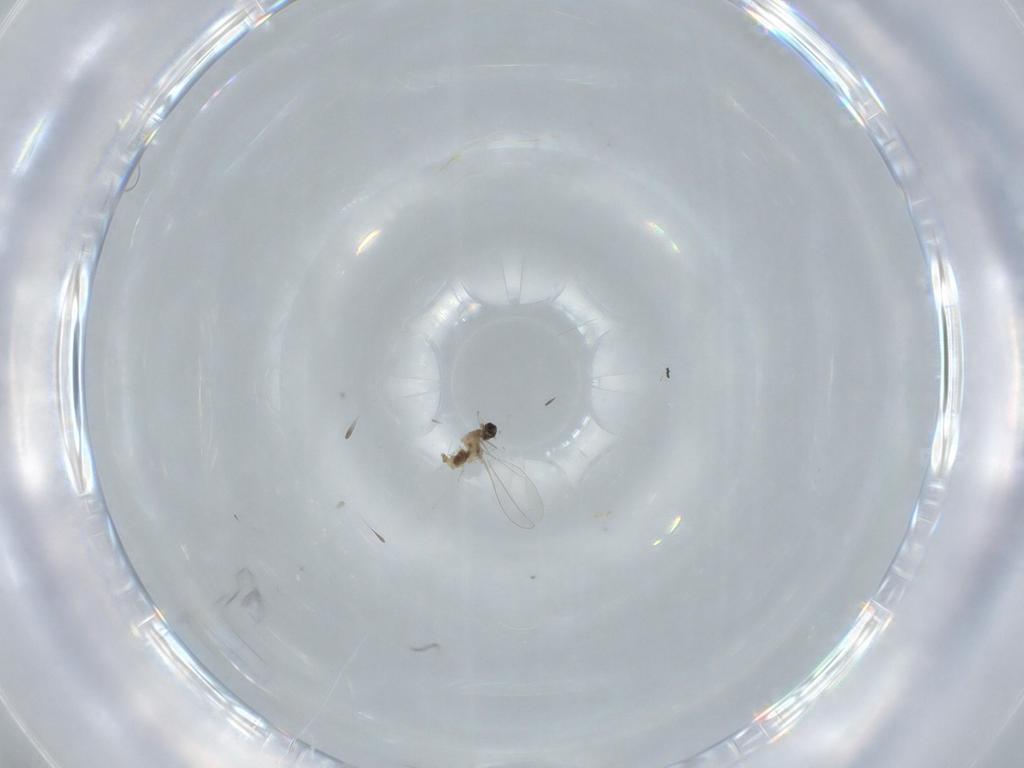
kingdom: Animalia
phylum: Arthropoda
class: Insecta
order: Diptera
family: Cecidomyiidae
